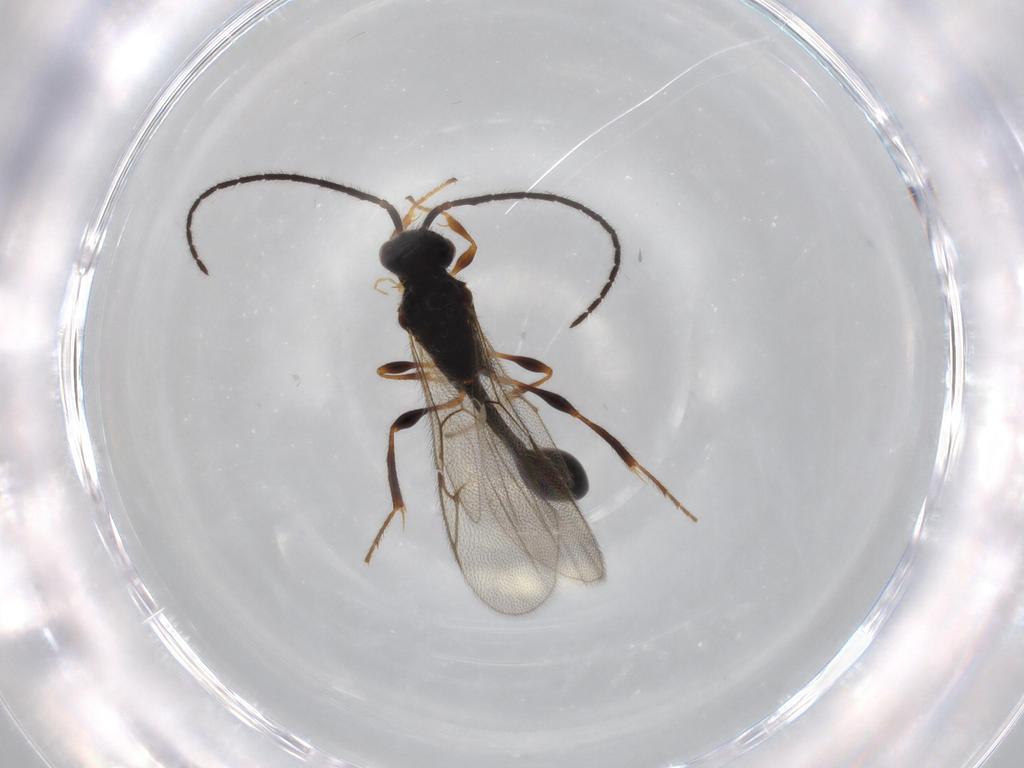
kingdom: Animalia
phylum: Arthropoda
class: Insecta
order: Hymenoptera
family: Diapriidae
